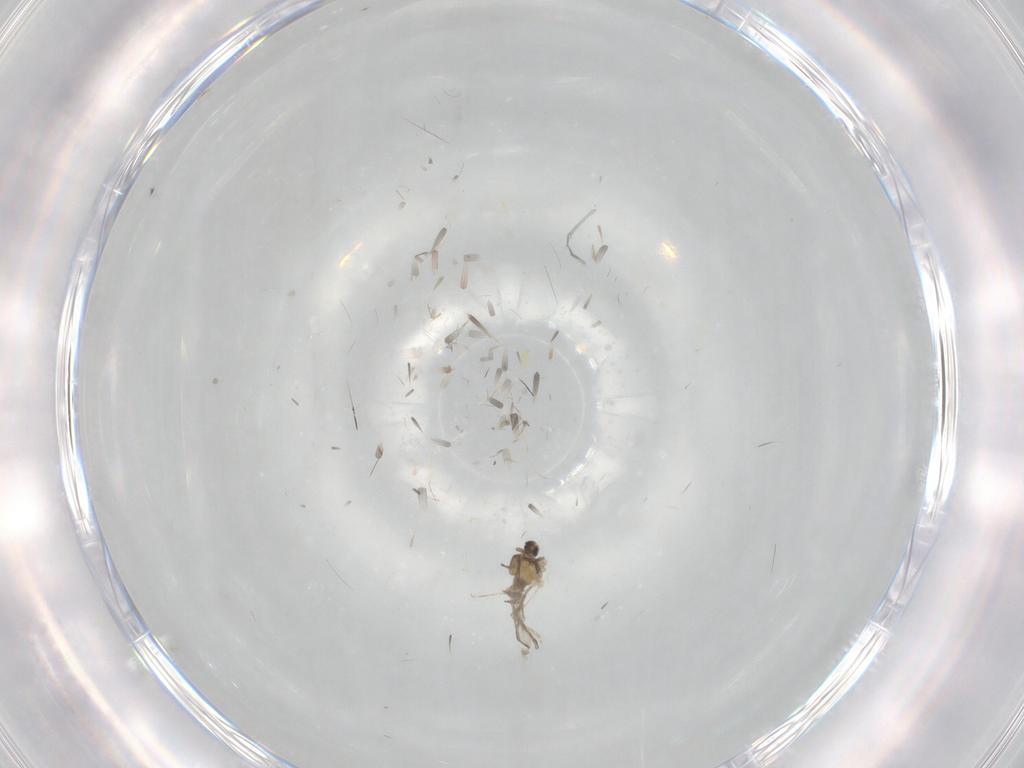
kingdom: Animalia
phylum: Arthropoda
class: Insecta
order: Diptera
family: Cecidomyiidae
